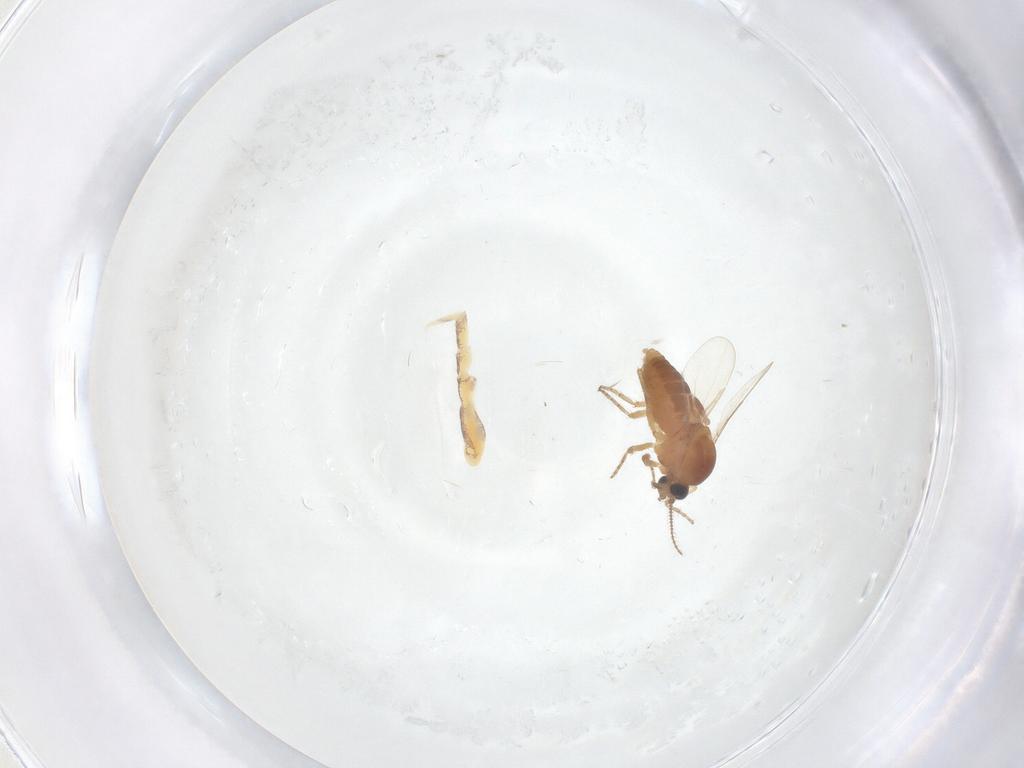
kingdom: Animalia
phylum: Arthropoda
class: Insecta
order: Diptera
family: Ceratopogonidae
